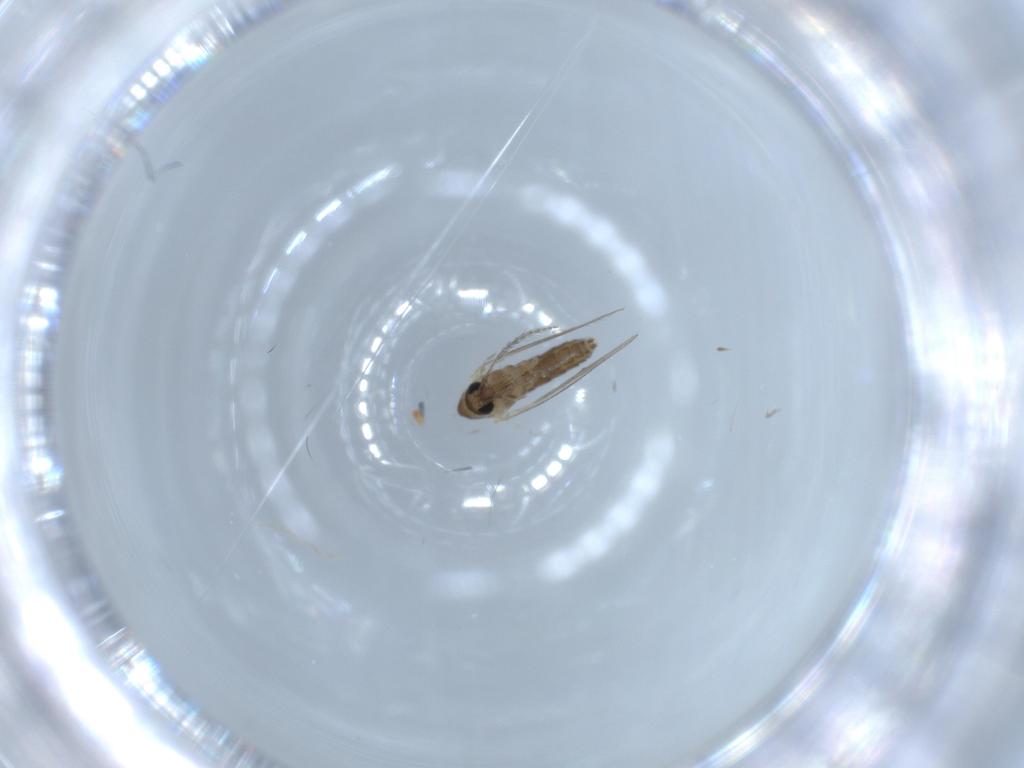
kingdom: Animalia
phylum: Arthropoda
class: Insecta
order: Diptera
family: Psychodidae
